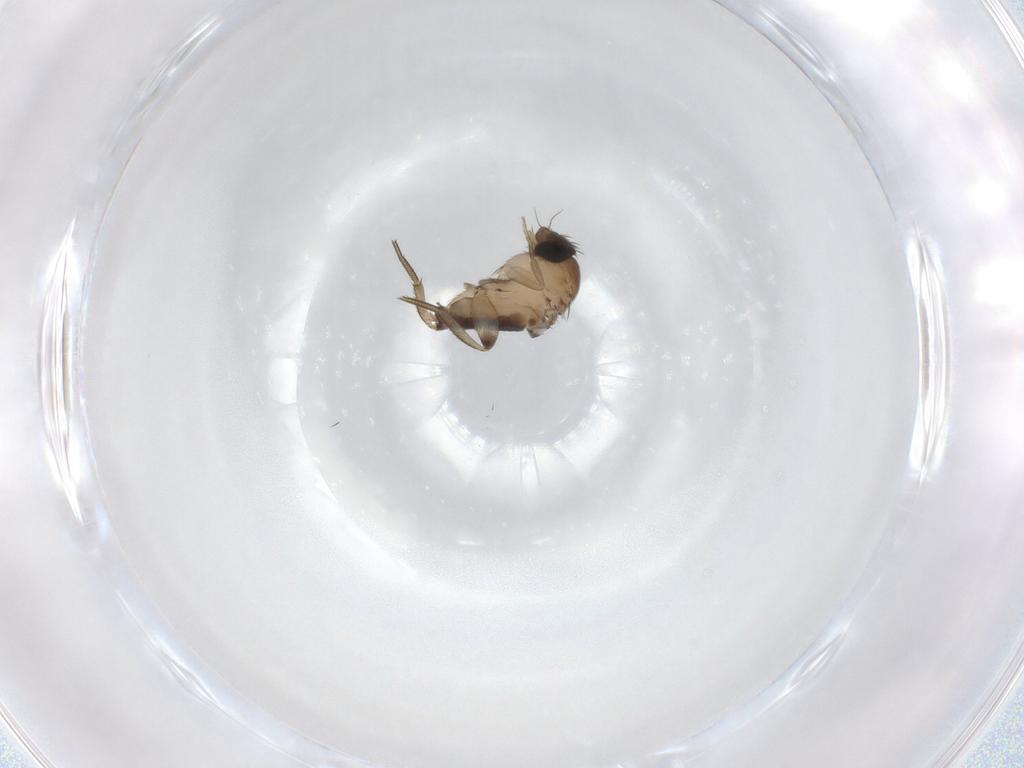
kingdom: Animalia
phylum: Arthropoda
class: Insecta
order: Diptera
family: Phoridae
